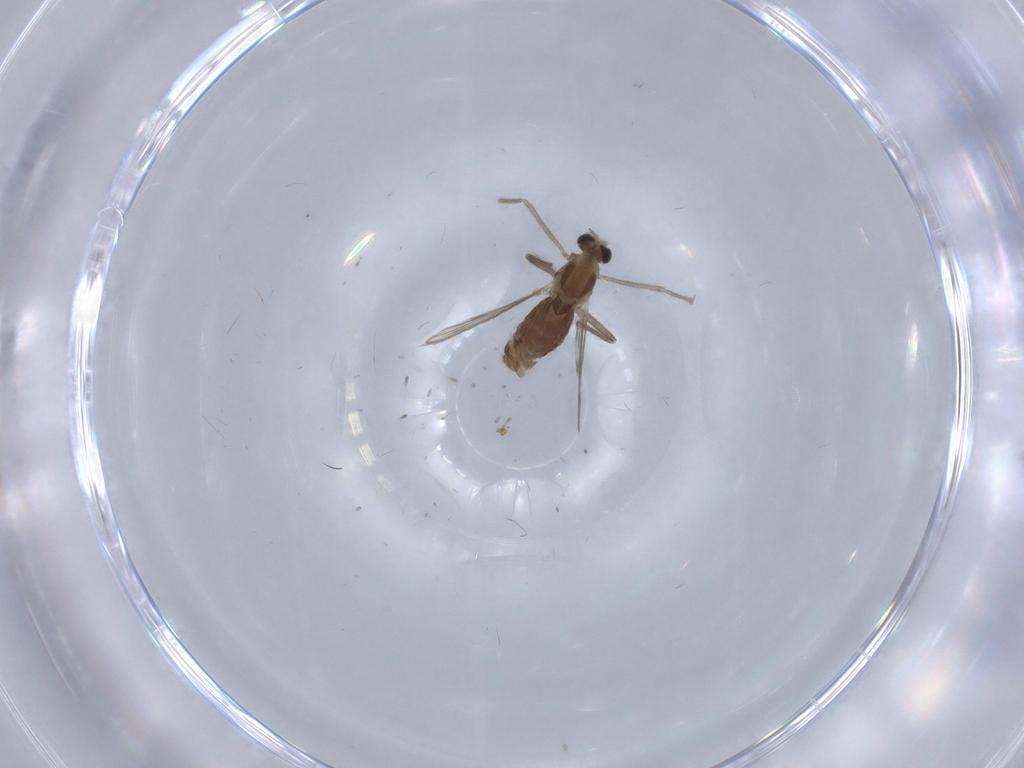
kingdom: Animalia
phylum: Arthropoda
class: Insecta
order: Diptera
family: Chironomidae
